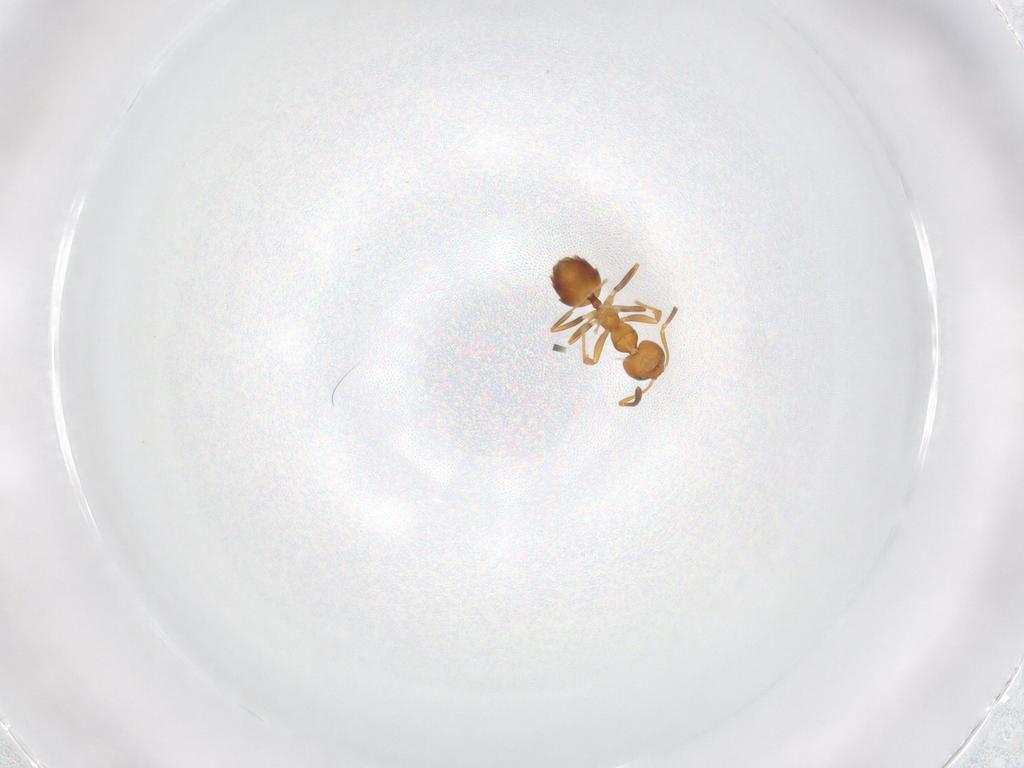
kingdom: Animalia
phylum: Arthropoda
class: Insecta
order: Hymenoptera
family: Formicidae
